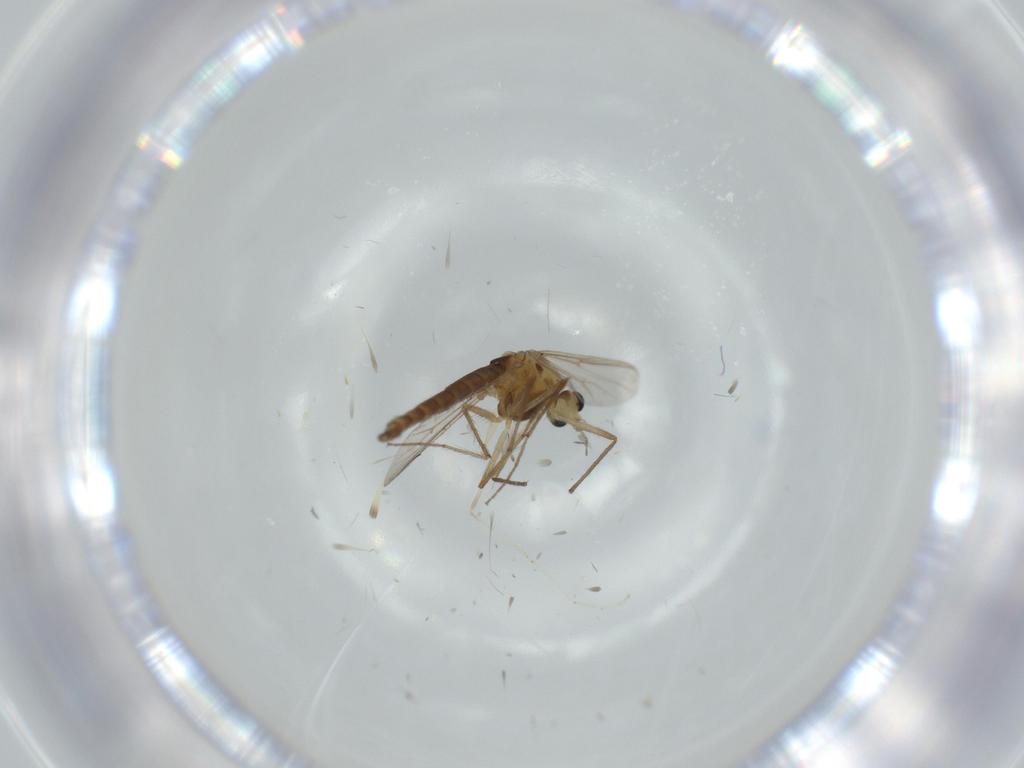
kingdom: Animalia
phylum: Arthropoda
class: Insecta
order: Diptera
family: Chironomidae
